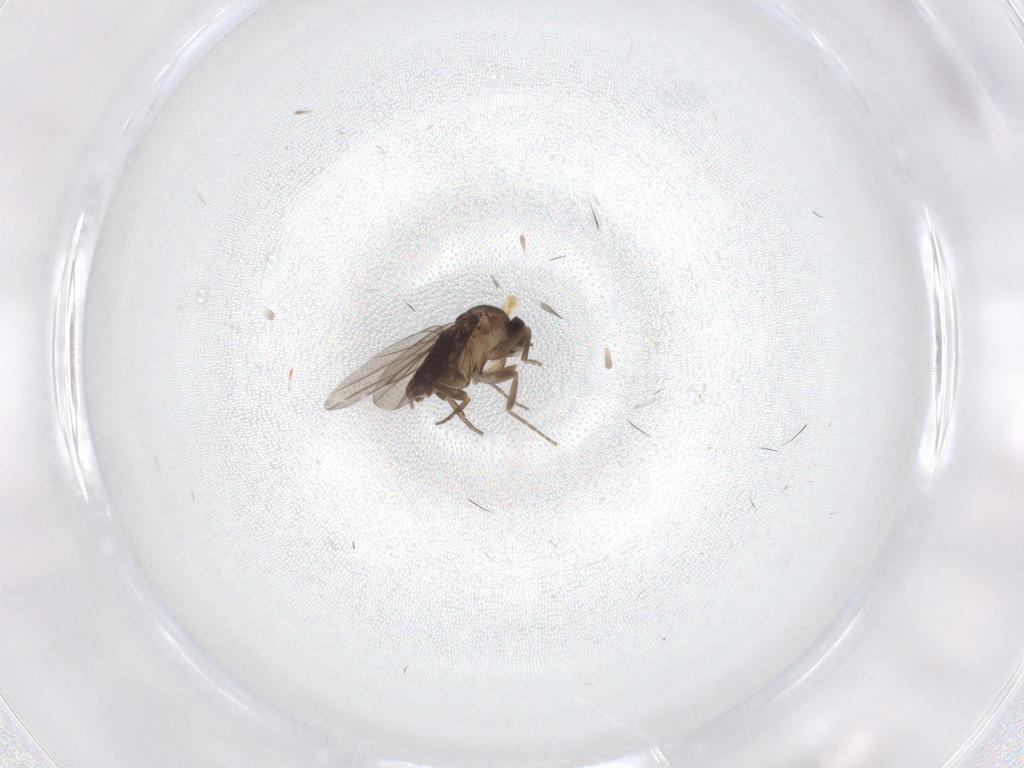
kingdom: Animalia
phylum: Arthropoda
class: Insecta
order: Diptera
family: Phoridae
